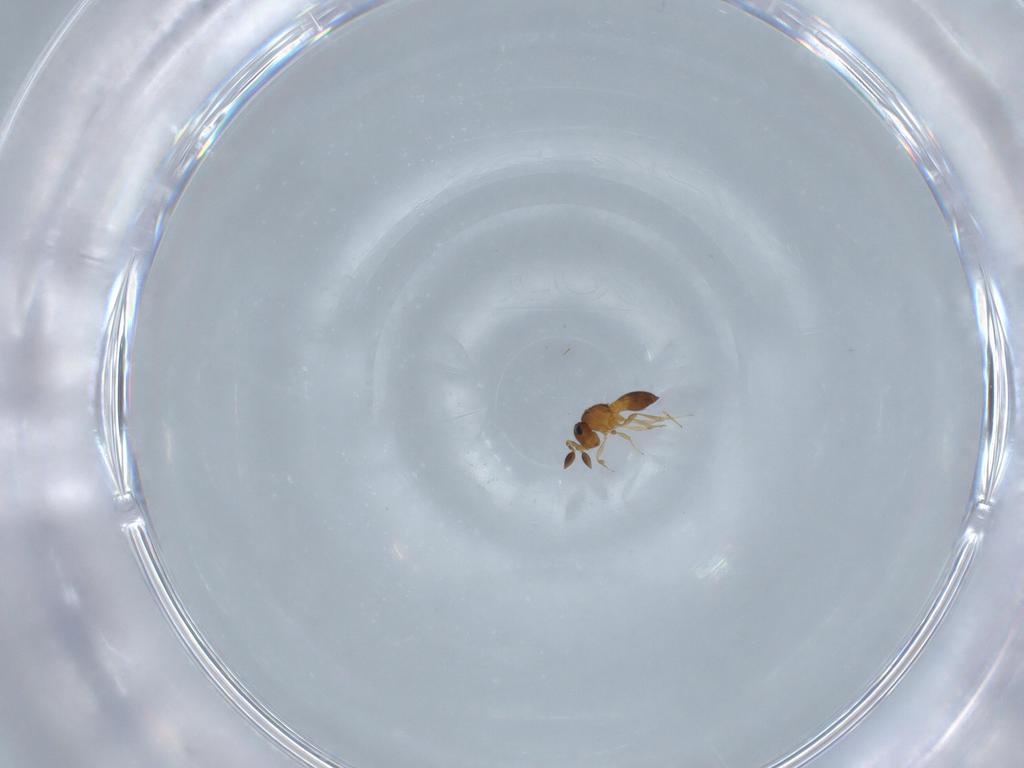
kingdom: Animalia
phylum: Arthropoda
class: Insecta
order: Hymenoptera
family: Scelionidae
